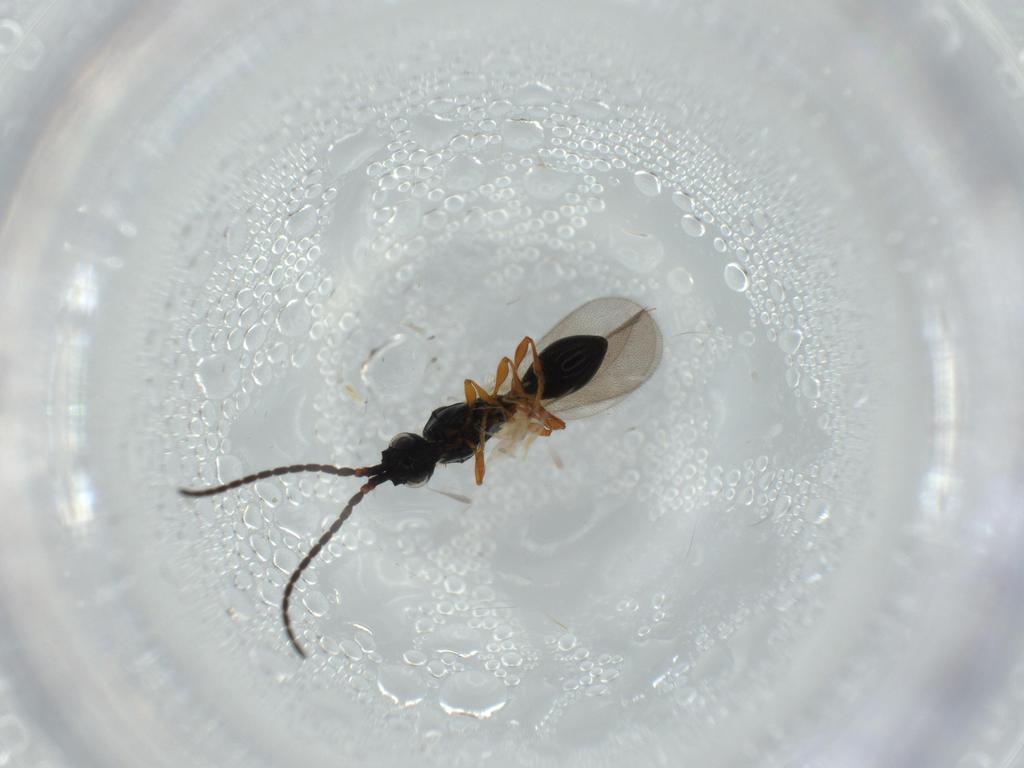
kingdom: Animalia
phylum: Arthropoda
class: Insecta
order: Hymenoptera
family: Diapriidae
